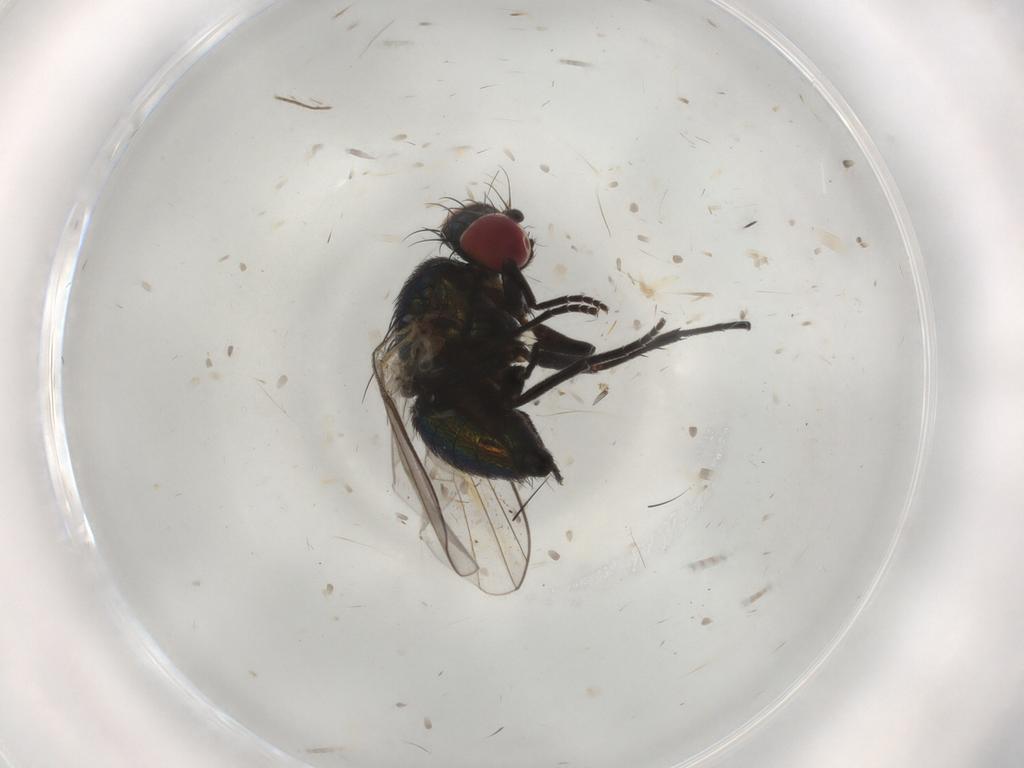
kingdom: Animalia
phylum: Arthropoda
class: Insecta
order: Diptera
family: Agromyzidae
